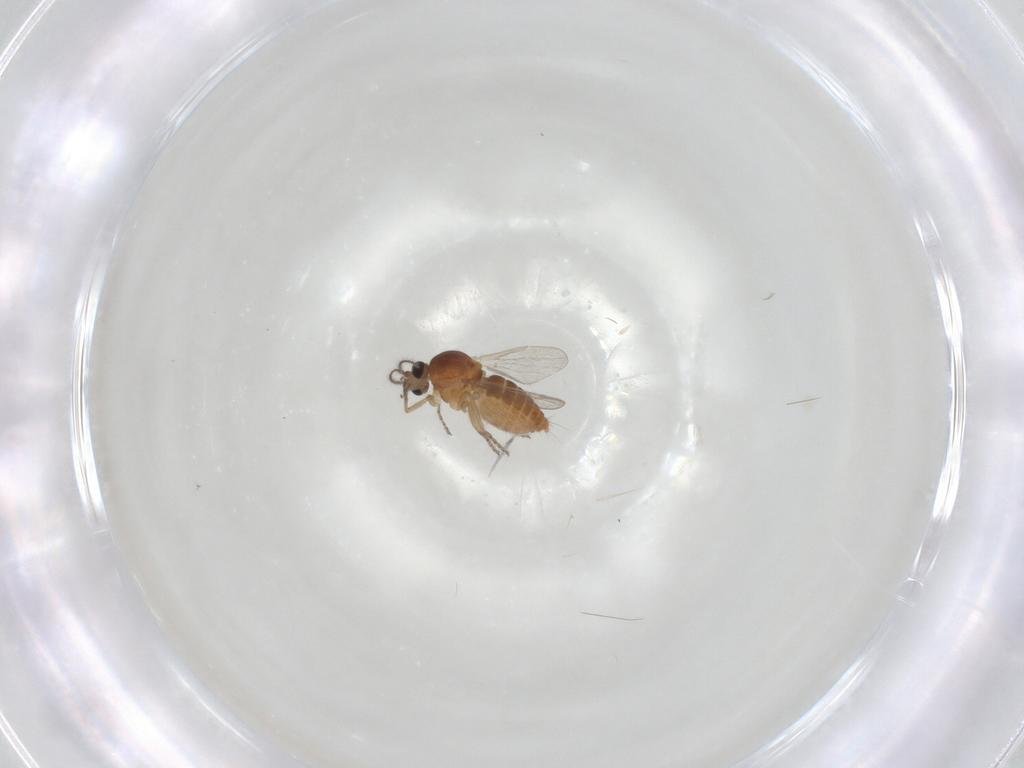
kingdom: Animalia
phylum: Arthropoda
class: Insecta
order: Diptera
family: Ceratopogonidae
